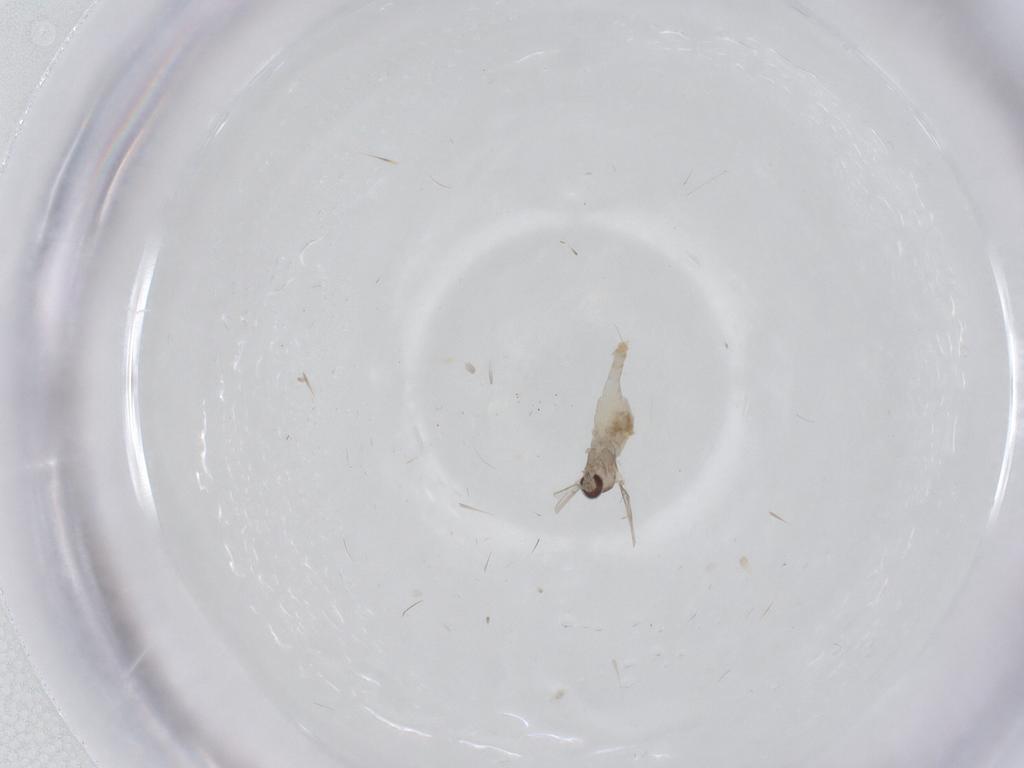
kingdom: Animalia
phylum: Arthropoda
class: Insecta
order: Diptera
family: Cecidomyiidae
